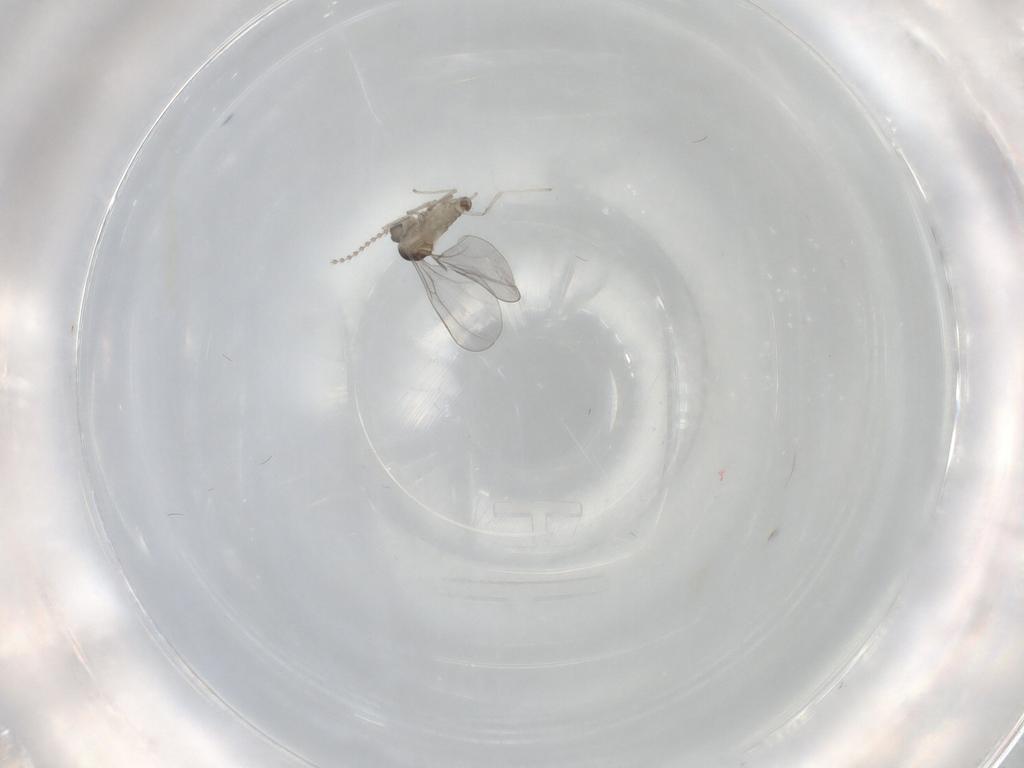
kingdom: Animalia
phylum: Arthropoda
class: Insecta
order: Diptera
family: Cecidomyiidae
